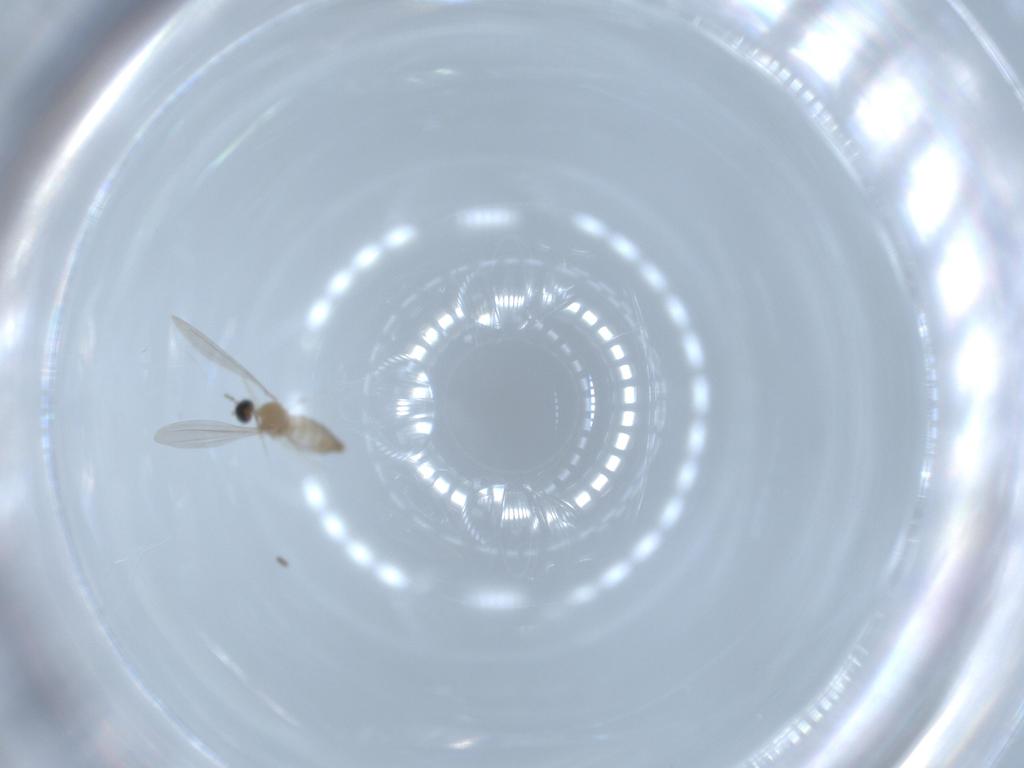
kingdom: Animalia
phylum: Arthropoda
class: Insecta
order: Diptera
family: Cecidomyiidae
